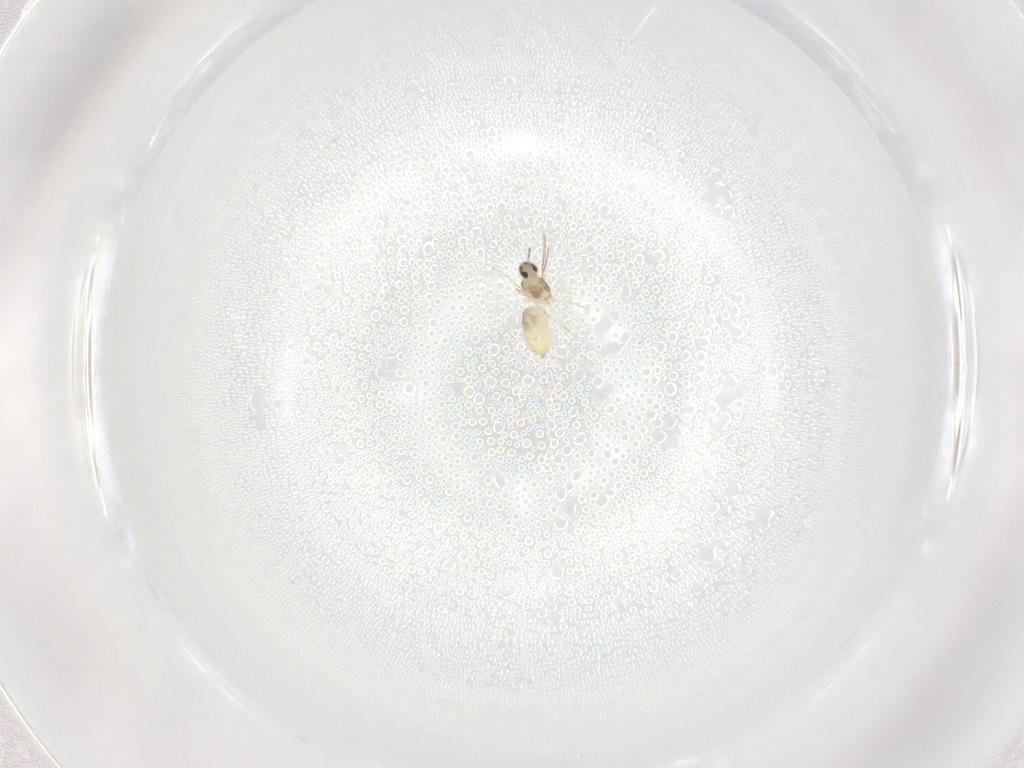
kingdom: Animalia
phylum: Arthropoda
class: Insecta
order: Diptera
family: Cecidomyiidae
